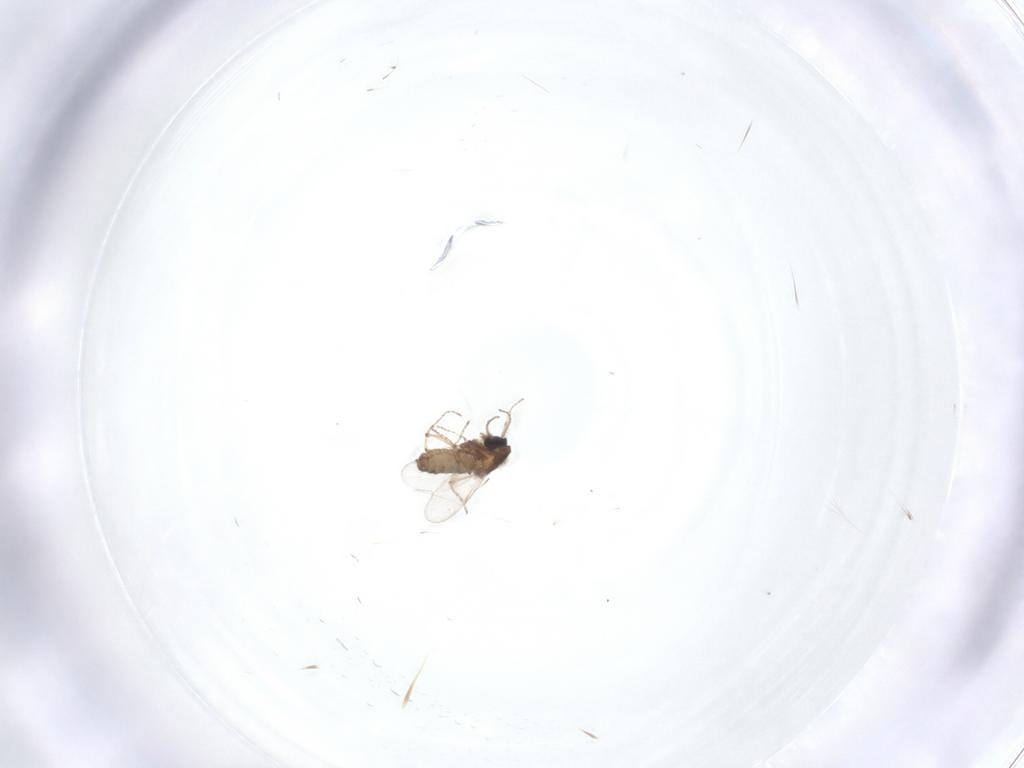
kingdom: Animalia
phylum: Arthropoda
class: Insecta
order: Diptera
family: Ceratopogonidae
